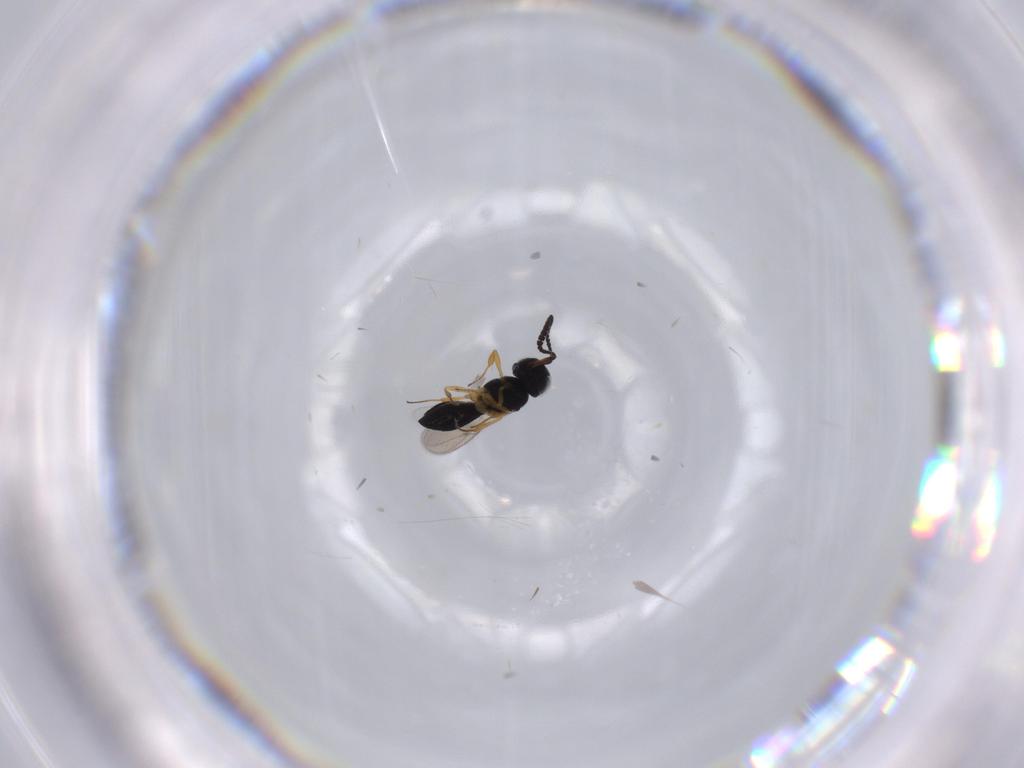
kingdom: Animalia
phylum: Arthropoda
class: Insecta
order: Hymenoptera
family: Scelionidae
